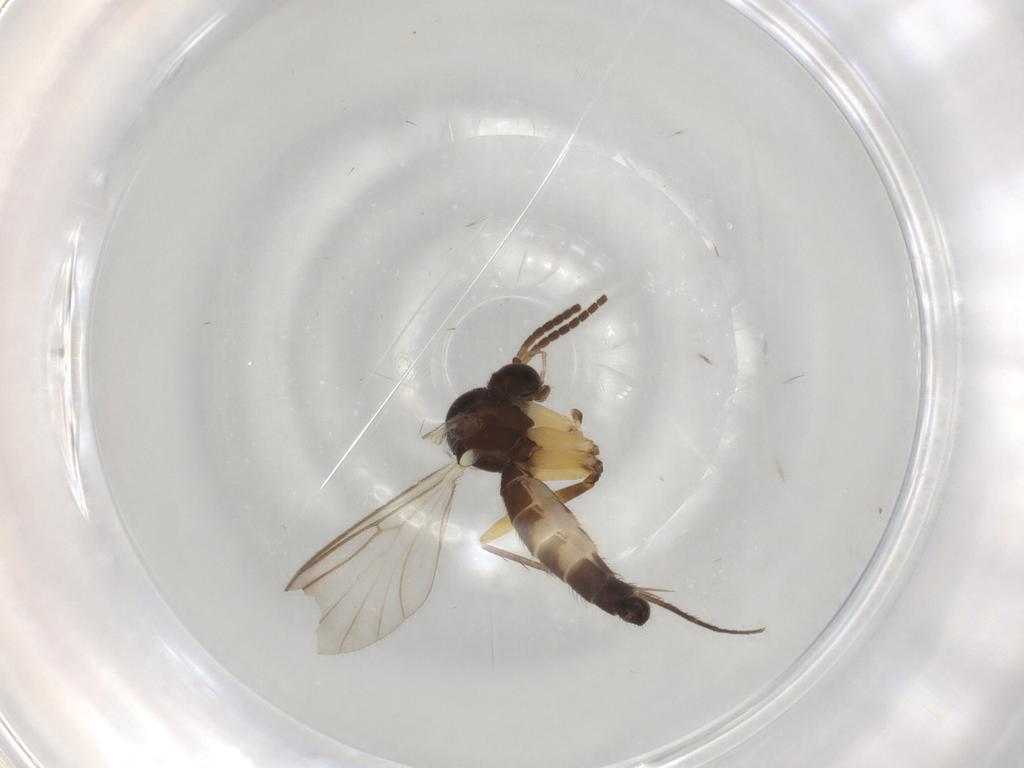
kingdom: Animalia
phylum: Arthropoda
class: Insecta
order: Diptera
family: Mycetophilidae
